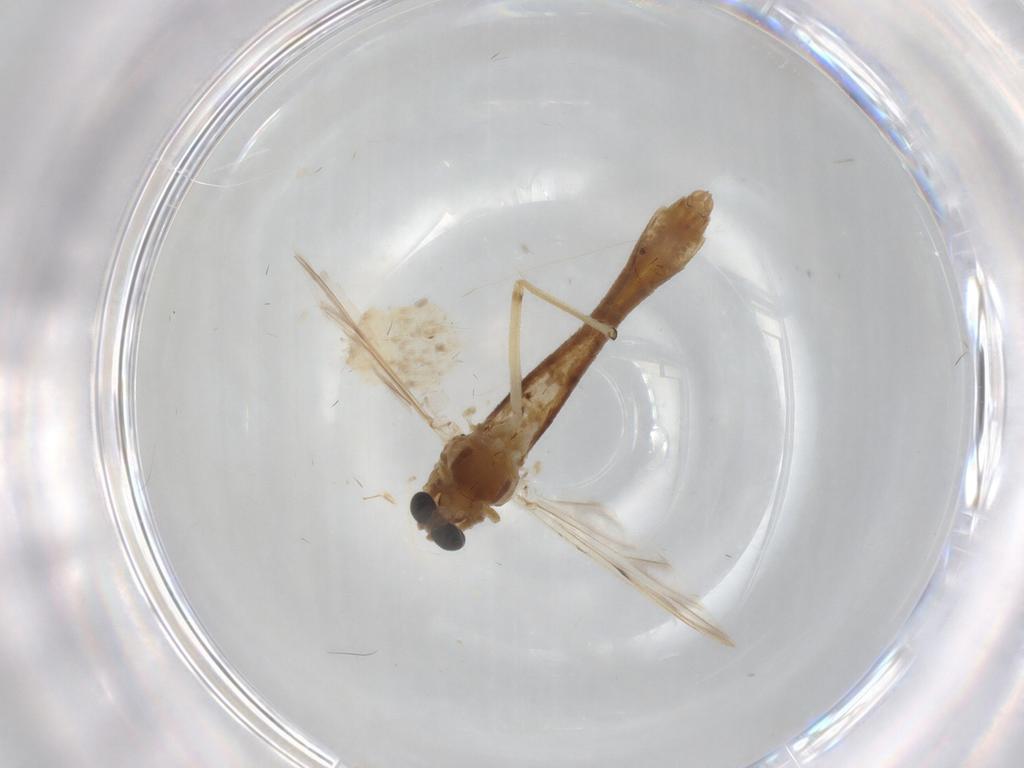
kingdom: Animalia
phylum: Arthropoda
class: Insecta
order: Diptera
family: Chironomidae
